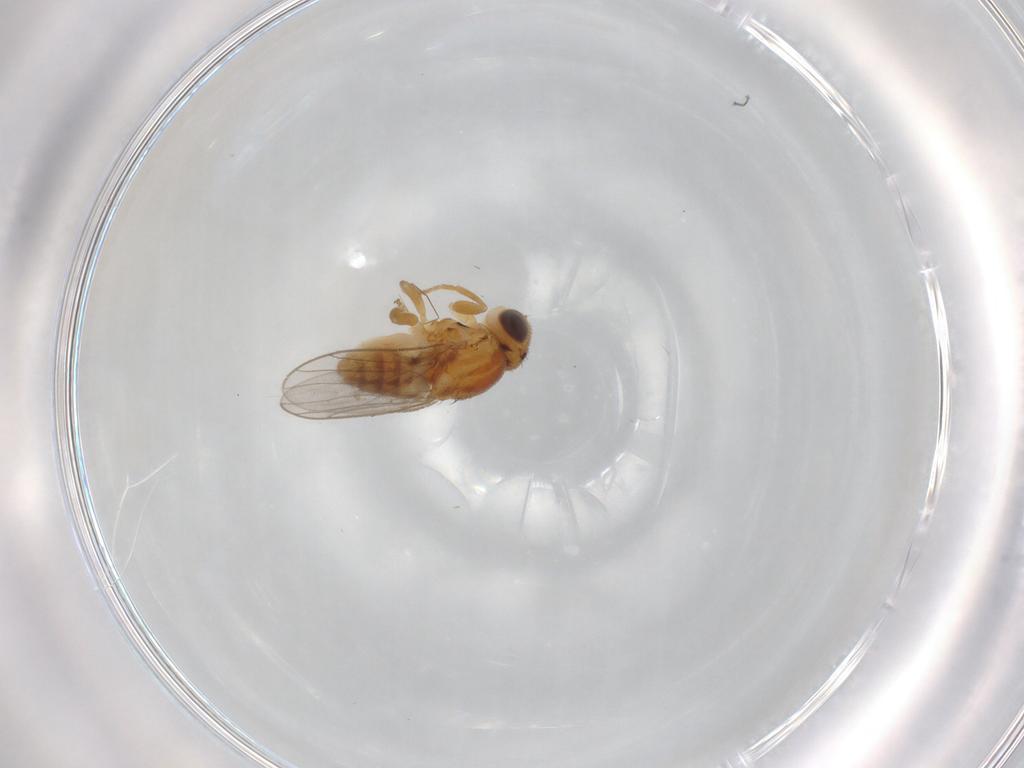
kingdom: Animalia
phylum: Arthropoda
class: Insecta
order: Diptera
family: Chloropidae
